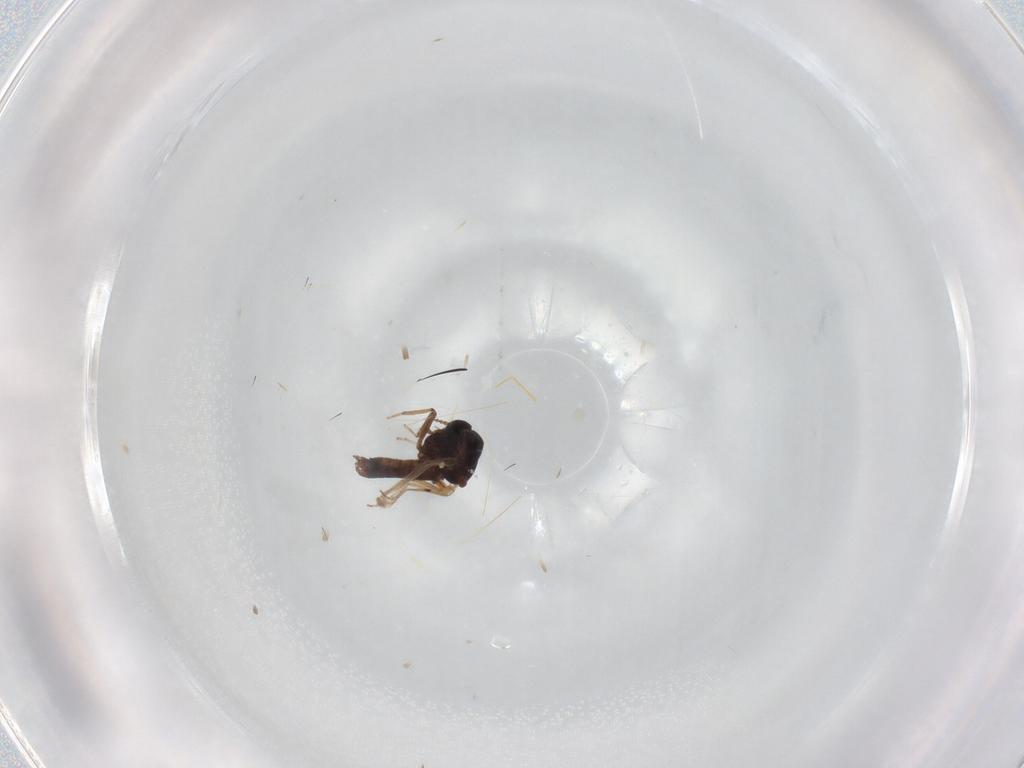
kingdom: Animalia
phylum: Arthropoda
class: Insecta
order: Diptera
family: Ceratopogonidae
